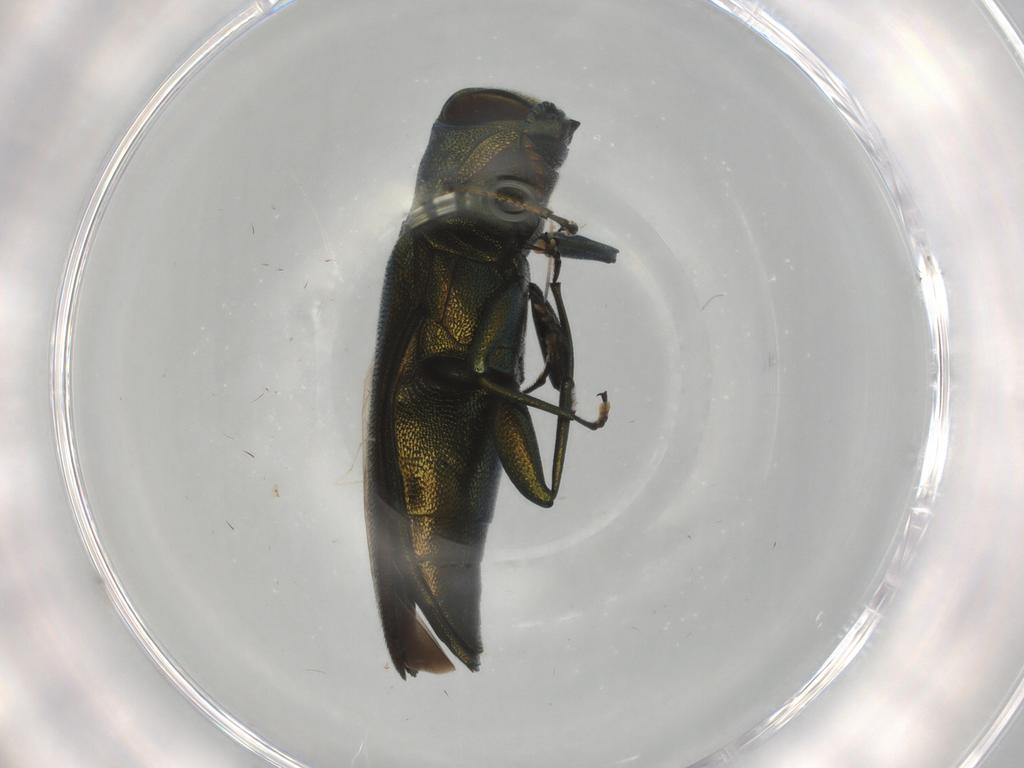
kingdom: Animalia
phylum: Arthropoda
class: Insecta
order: Coleoptera
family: Buprestidae
